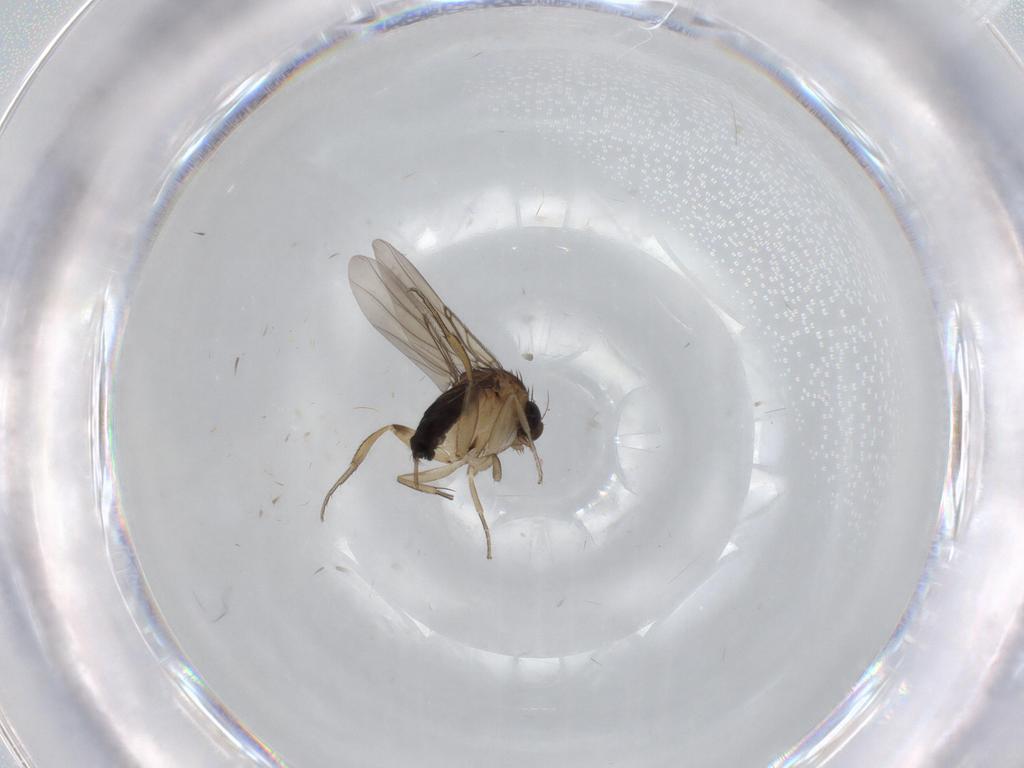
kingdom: Animalia
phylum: Arthropoda
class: Insecta
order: Diptera
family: Phoridae
